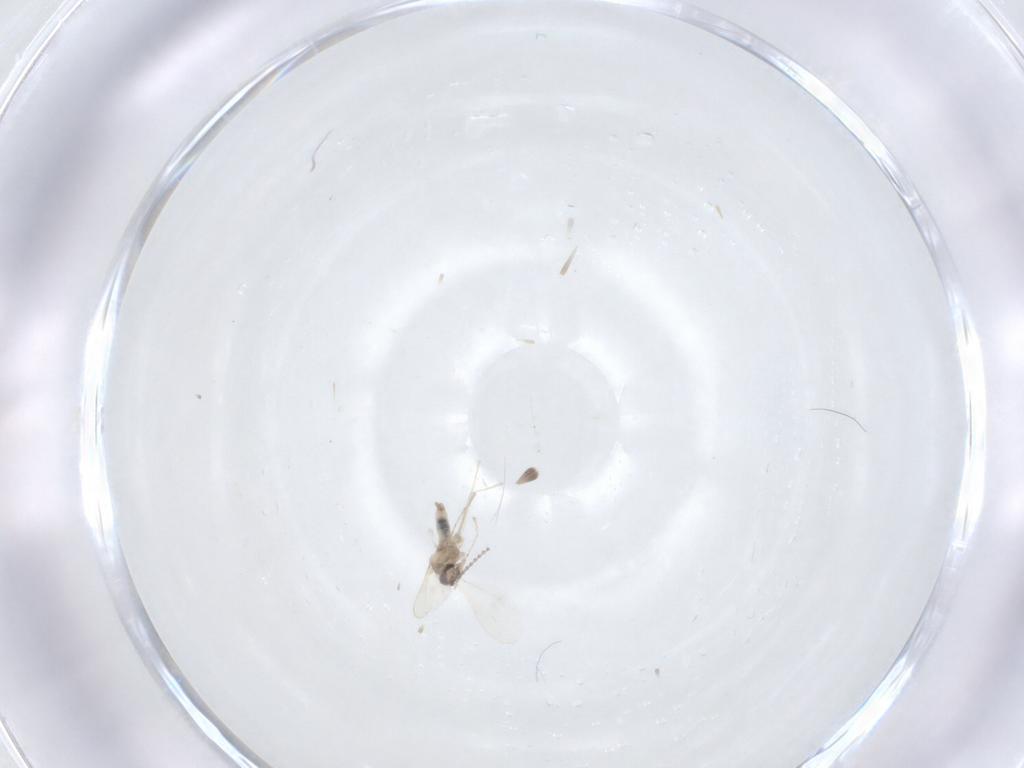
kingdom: Animalia
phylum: Arthropoda
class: Insecta
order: Diptera
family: Cecidomyiidae
